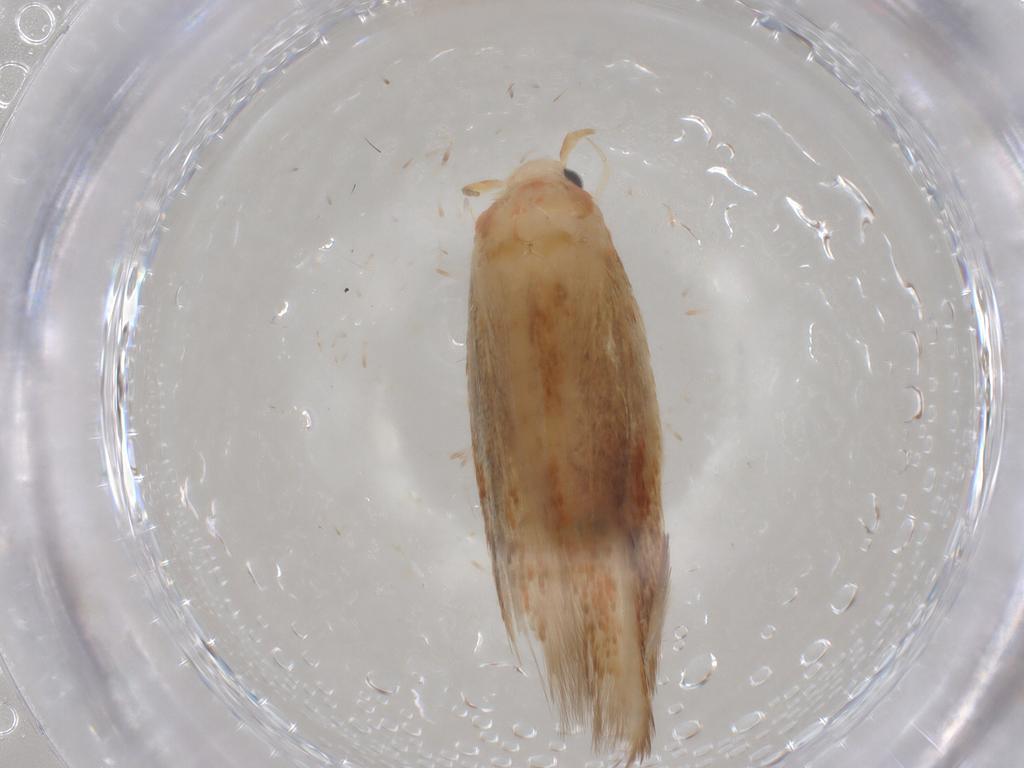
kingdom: Animalia
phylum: Arthropoda
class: Insecta
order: Lepidoptera
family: Geometridae
